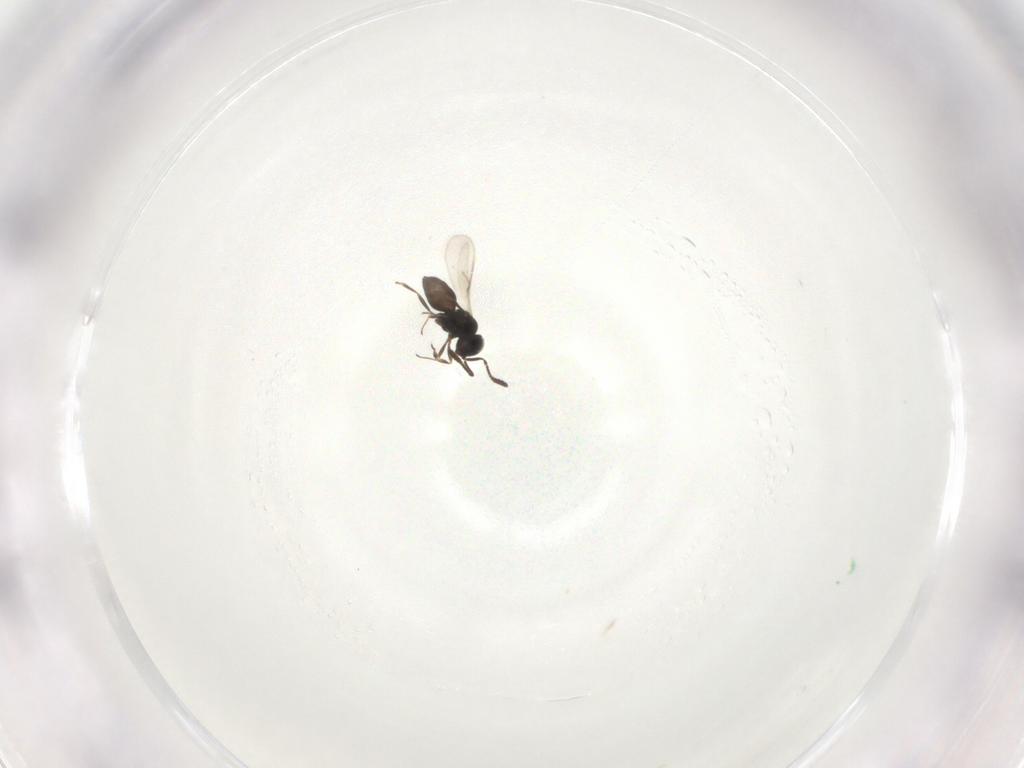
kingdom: Animalia
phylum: Arthropoda
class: Insecta
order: Hymenoptera
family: Scelionidae
